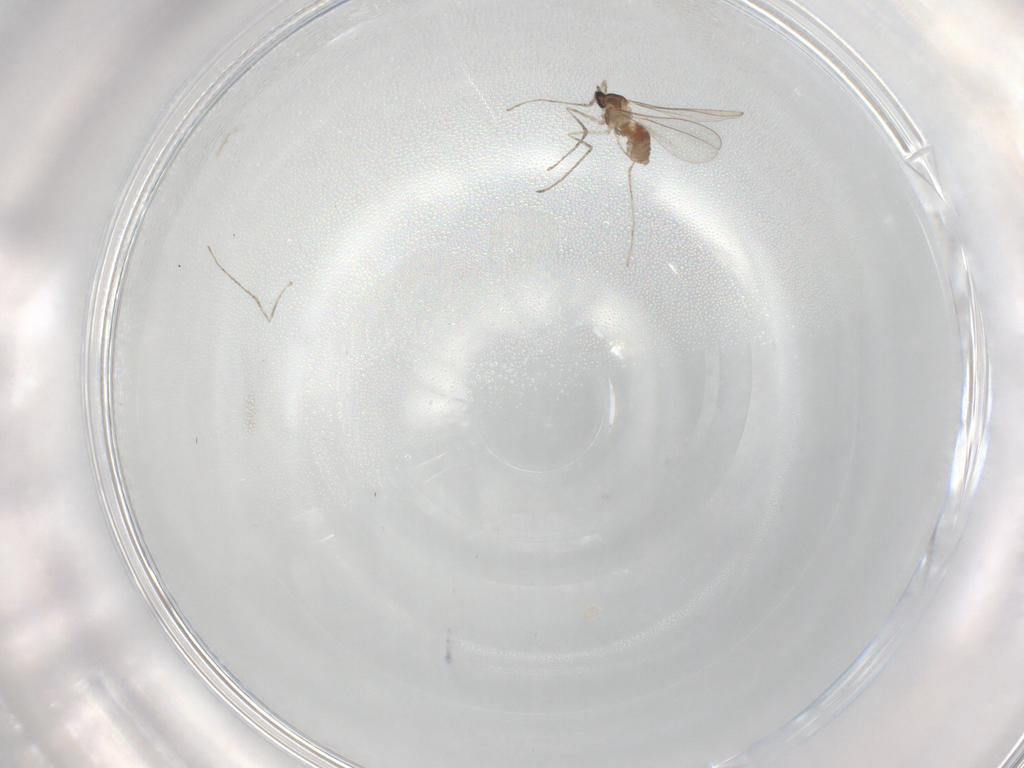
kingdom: Animalia
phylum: Arthropoda
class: Insecta
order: Diptera
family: Cecidomyiidae
